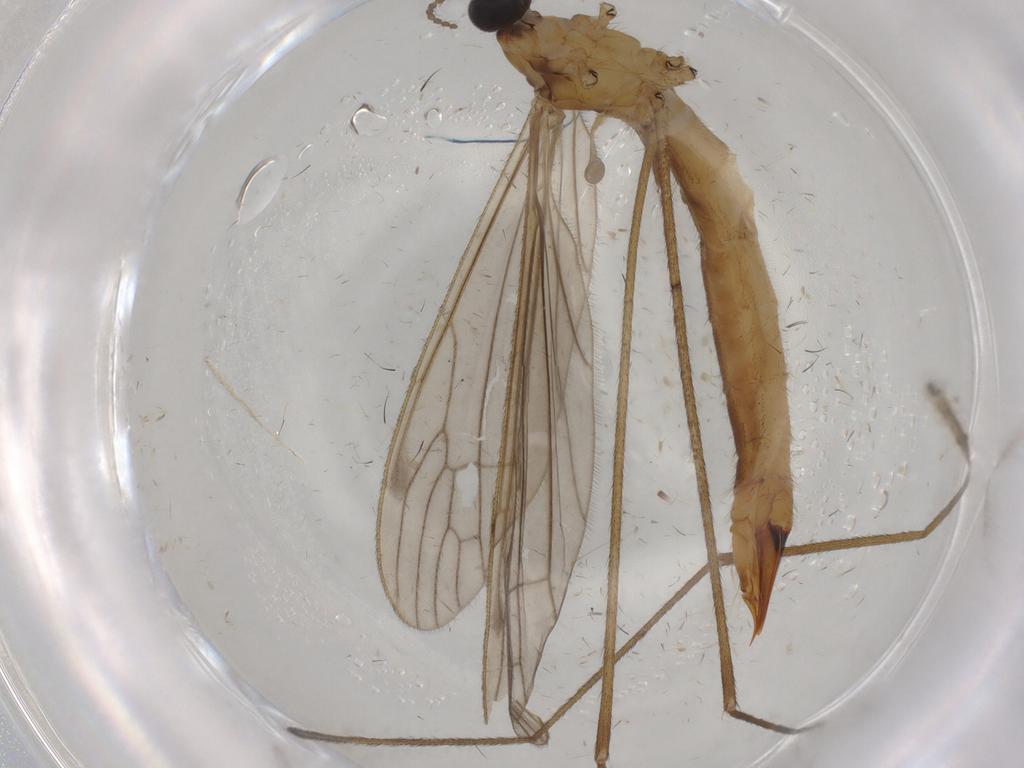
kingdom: Animalia
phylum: Arthropoda
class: Insecta
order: Diptera
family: Limoniidae
